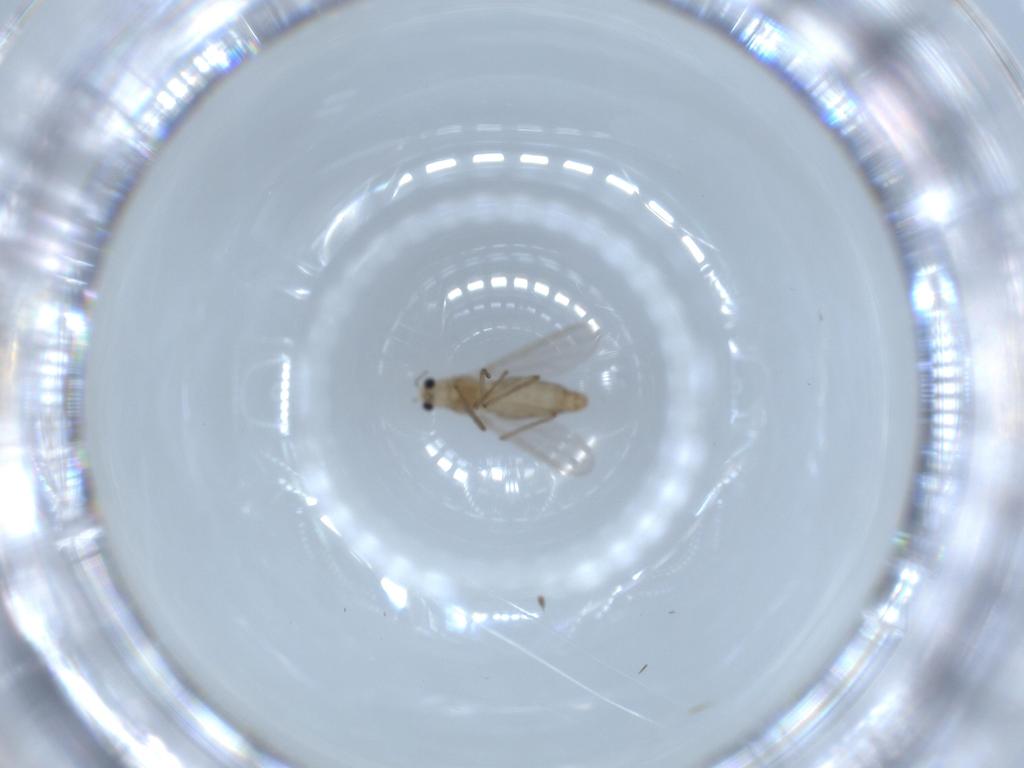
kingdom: Animalia
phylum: Arthropoda
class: Insecta
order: Diptera
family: Chironomidae
